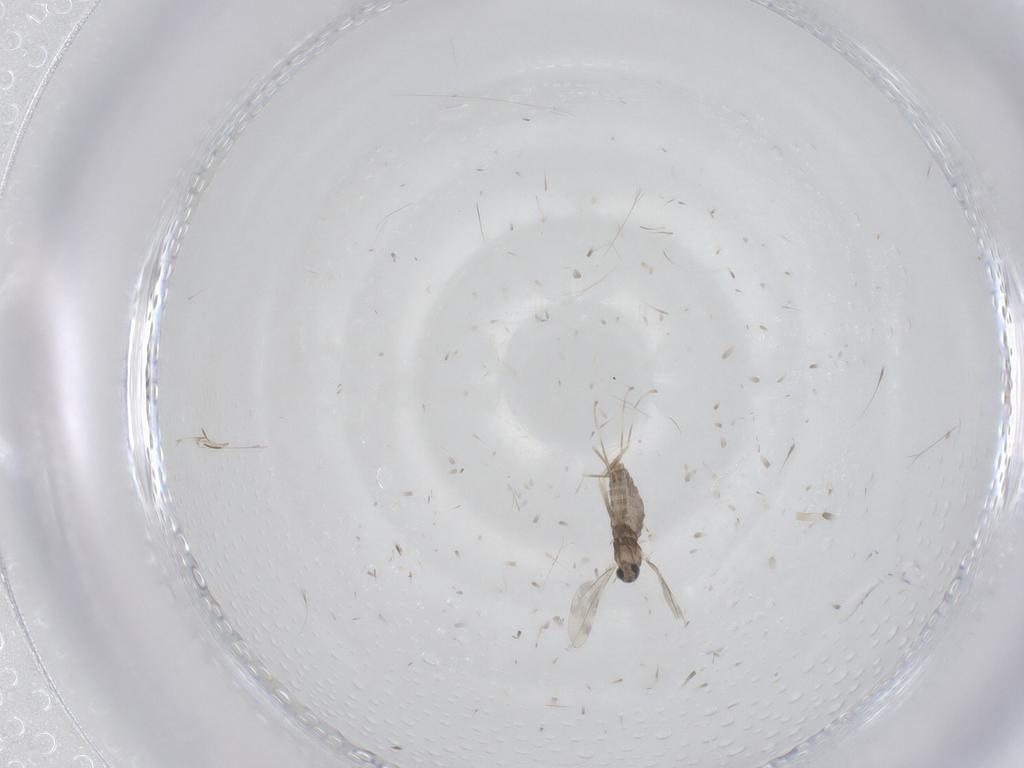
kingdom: Animalia
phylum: Arthropoda
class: Insecta
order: Diptera
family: Cecidomyiidae
